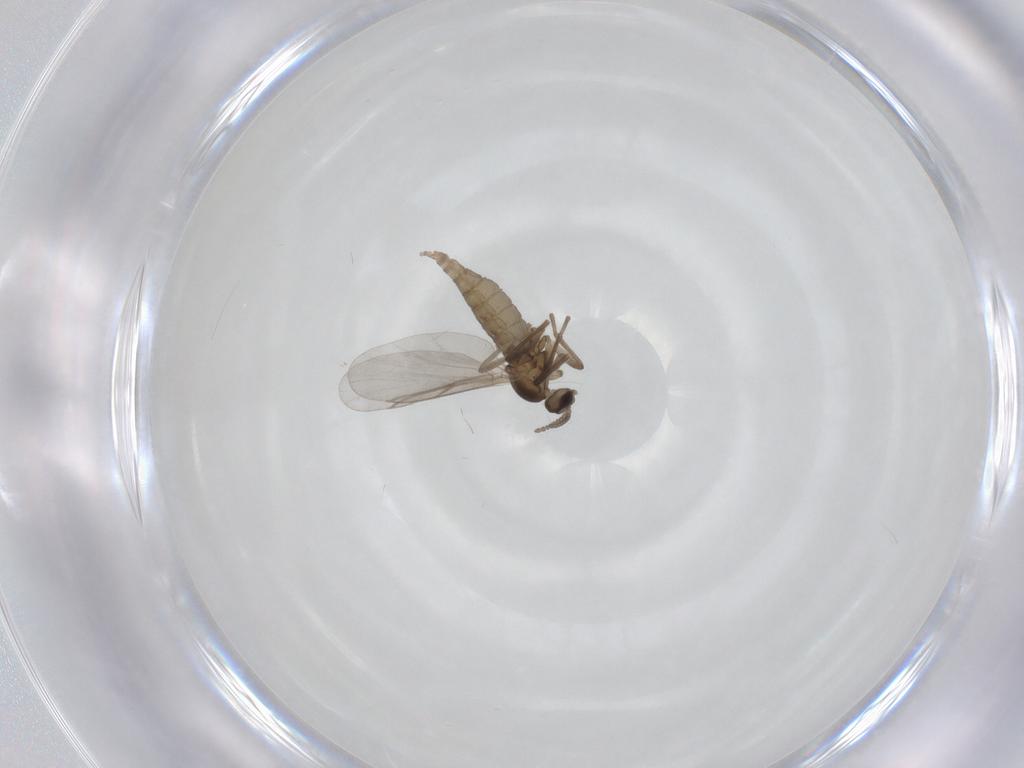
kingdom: Animalia
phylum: Arthropoda
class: Insecta
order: Diptera
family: Cecidomyiidae
